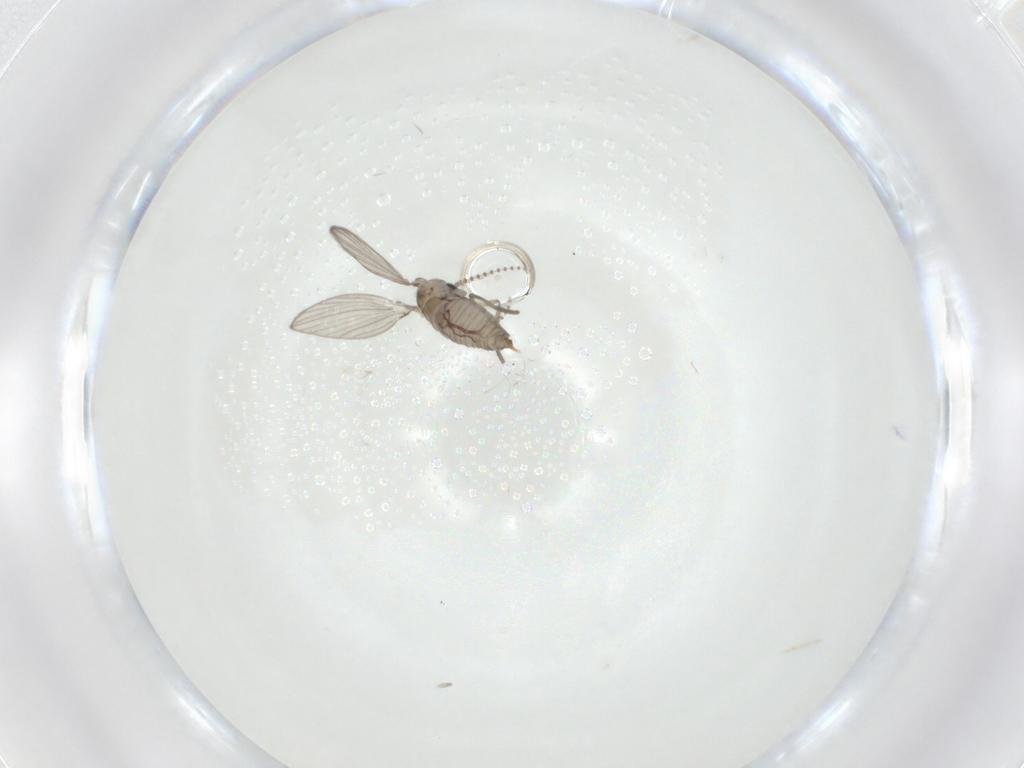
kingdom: Animalia
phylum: Arthropoda
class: Insecta
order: Diptera
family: Psychodidae
